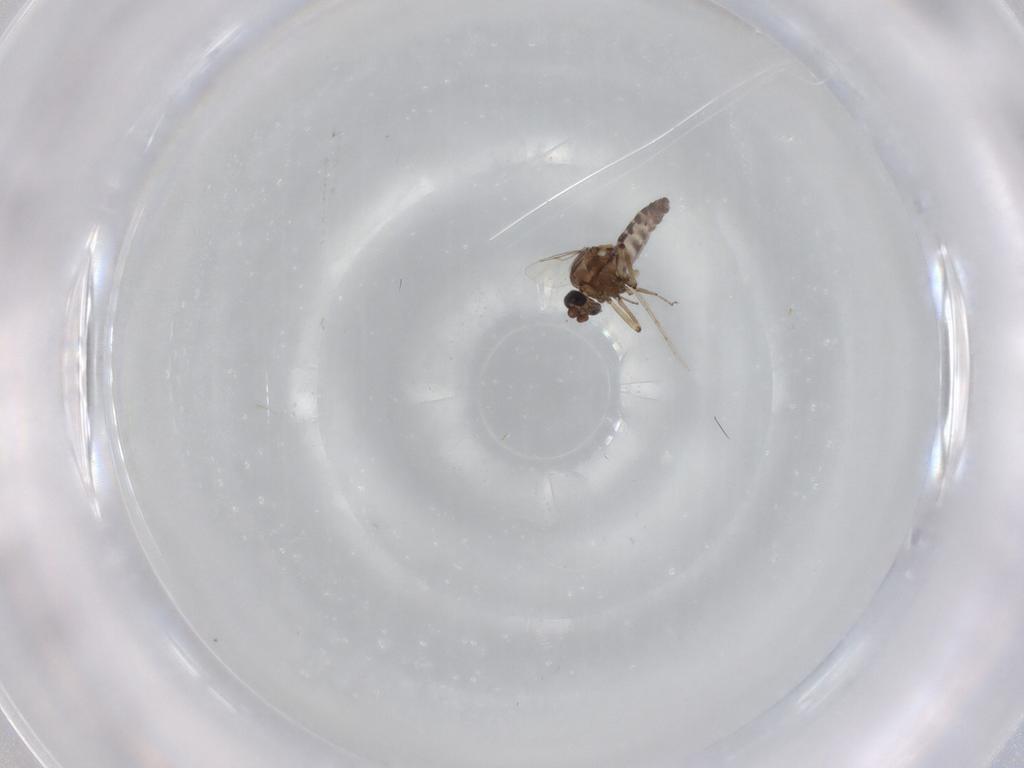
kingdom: Animalia
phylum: Arthropoda
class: Insecta
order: Diptera
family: Ceratopogonidae
